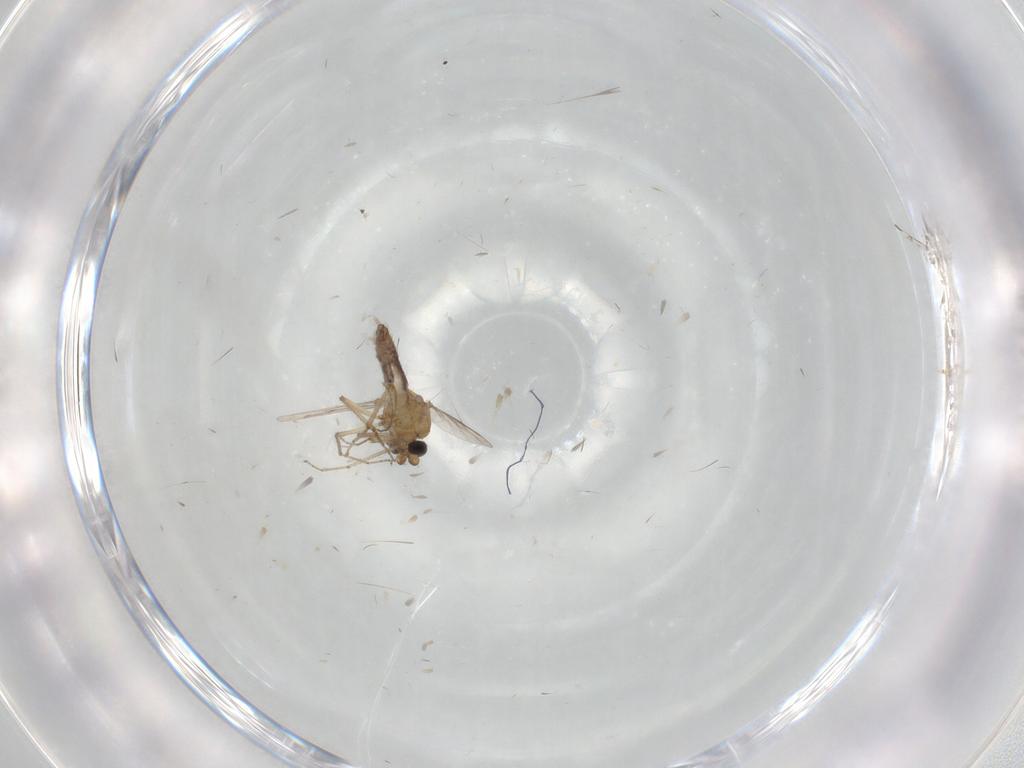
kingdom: Animalia
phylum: Arthropoda
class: Insecta
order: Diptera
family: Ceratopogonidae
